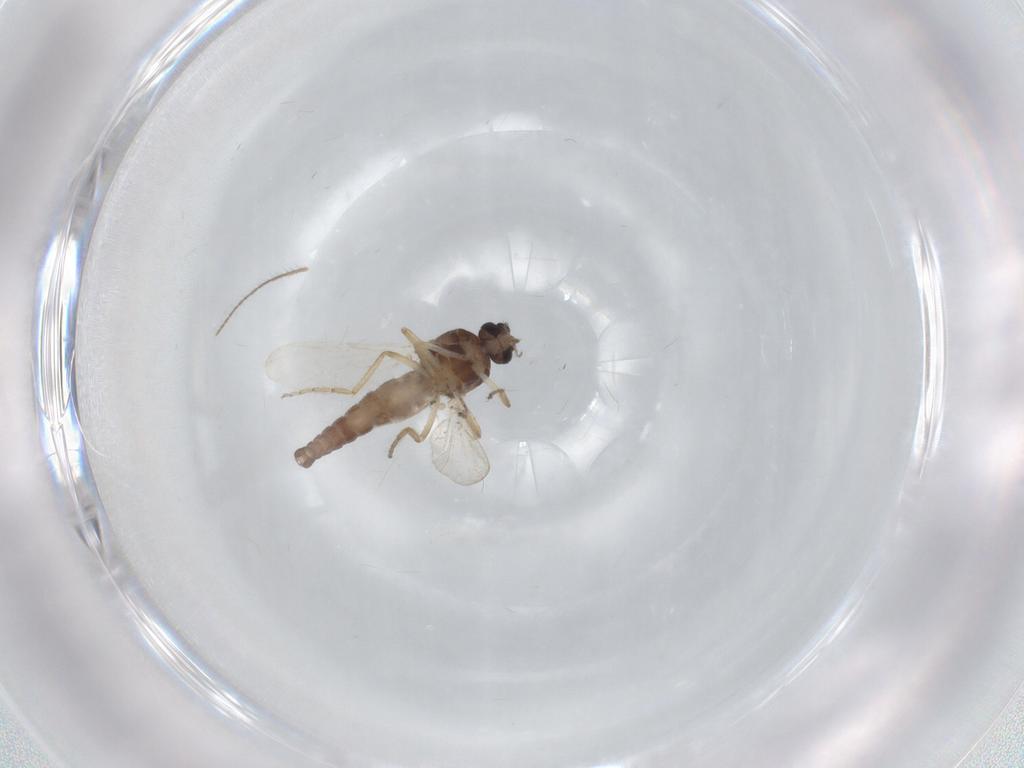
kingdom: Animalia
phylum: Arthropoda
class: Insecta
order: Diptera
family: Ceratopogonidae
